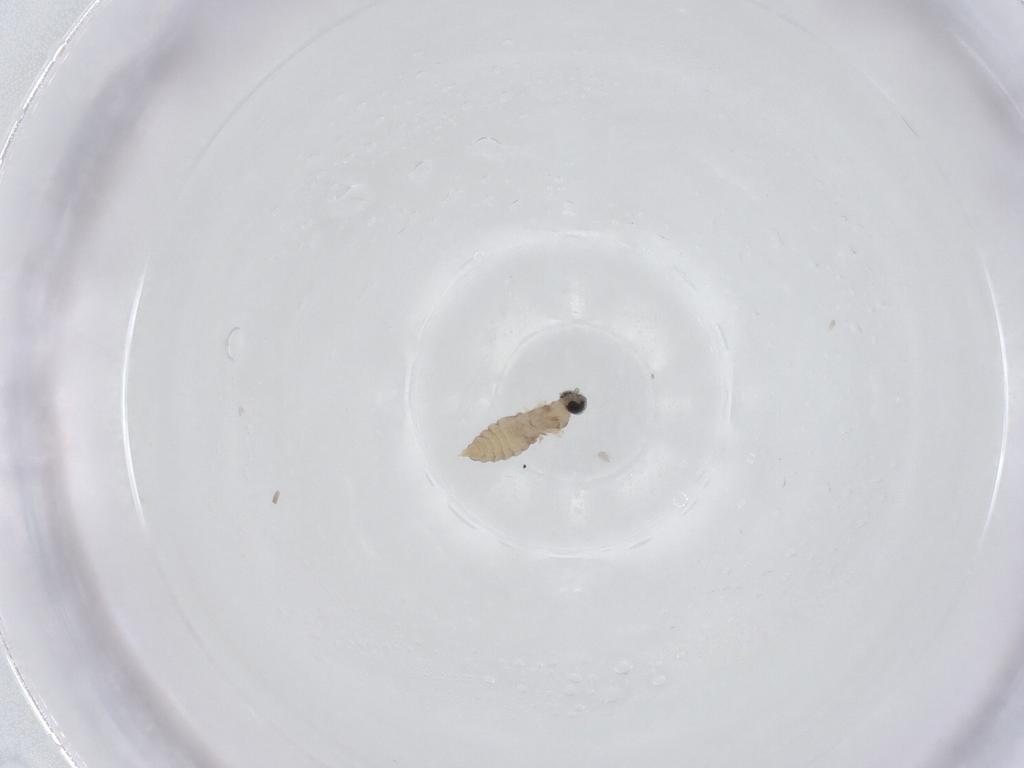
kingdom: Animalia
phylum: Arthropoda
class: Insecta
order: Diptera
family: Cecidomyiidae
